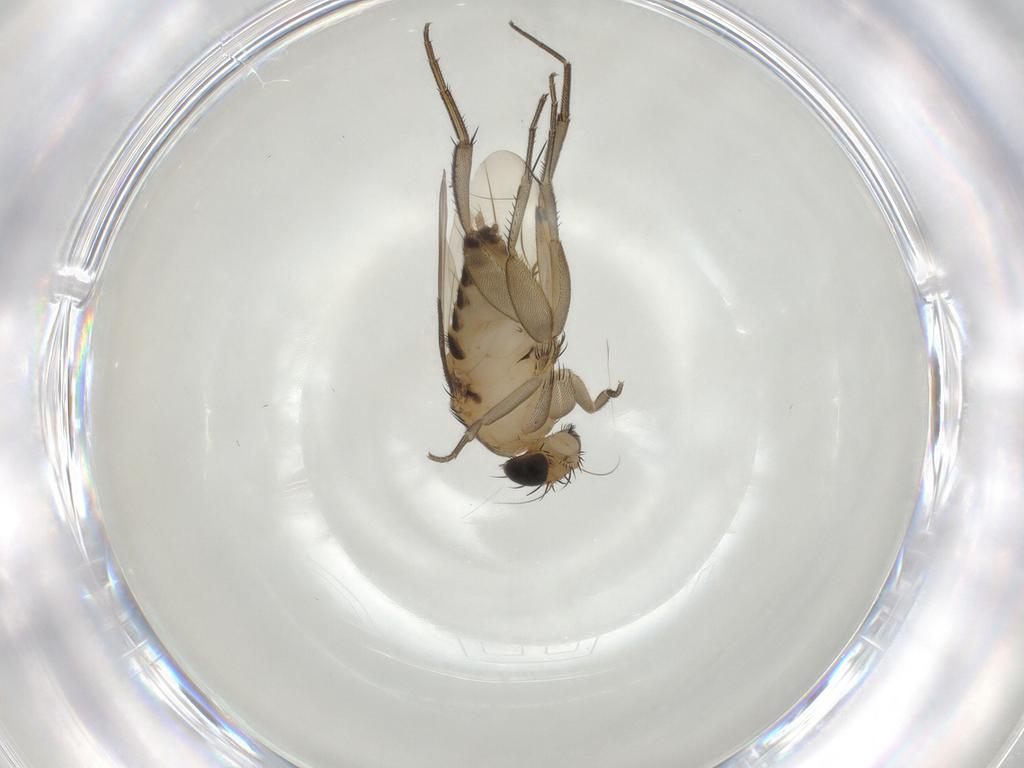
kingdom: Animalia
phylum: Arthropoda
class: Insecta
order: Diptera
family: Phoridae
